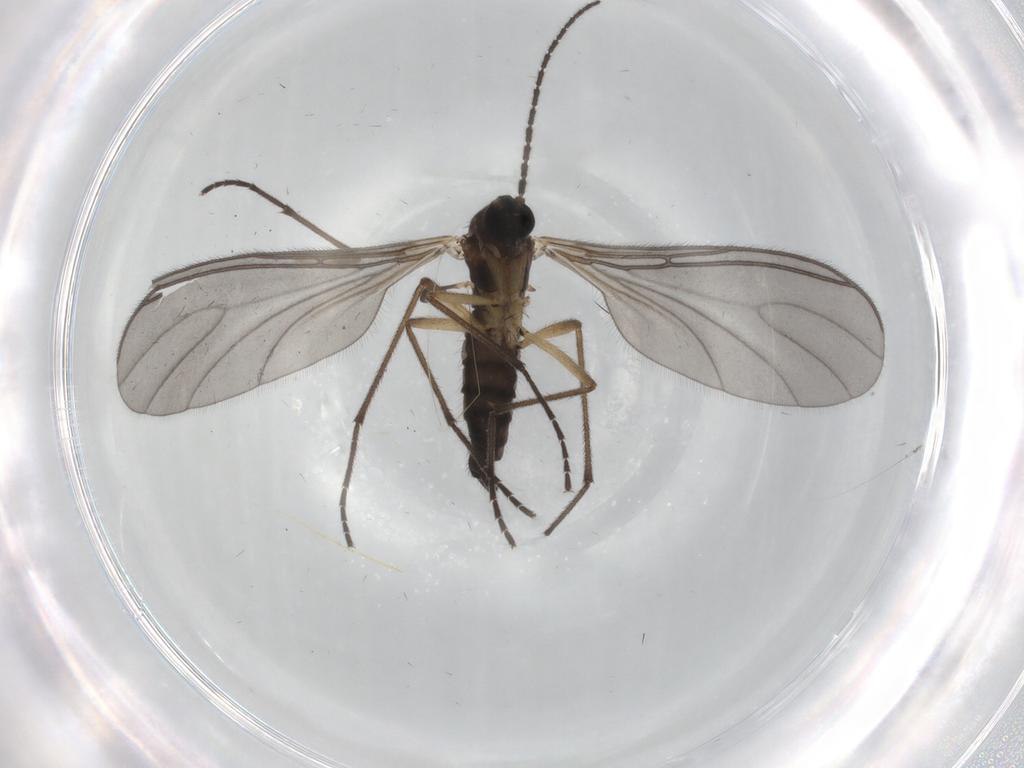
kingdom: Animalia
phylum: Arthropoda
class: Insecta
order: Diptera
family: Sciaridae
